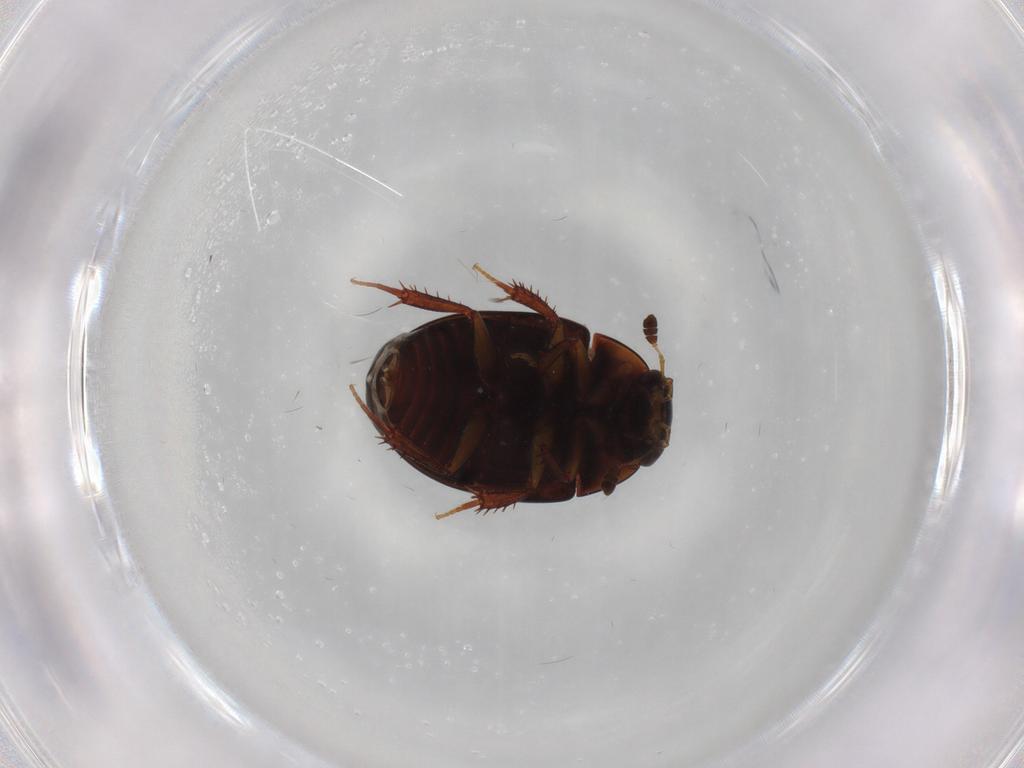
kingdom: Animalia
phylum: Arthropoda
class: Insecta
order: Coleoptera
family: Hydrophilidae
